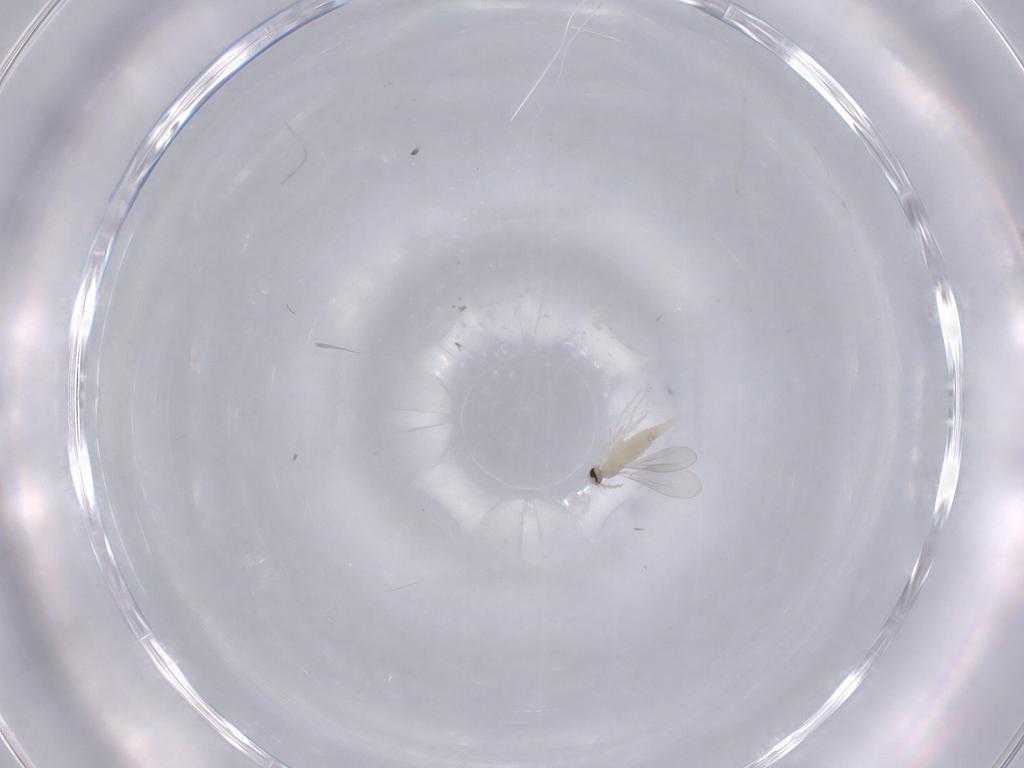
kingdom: Animalia
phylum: Arthropoda
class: Insecta
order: Diptera
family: Cecidomyiidae
